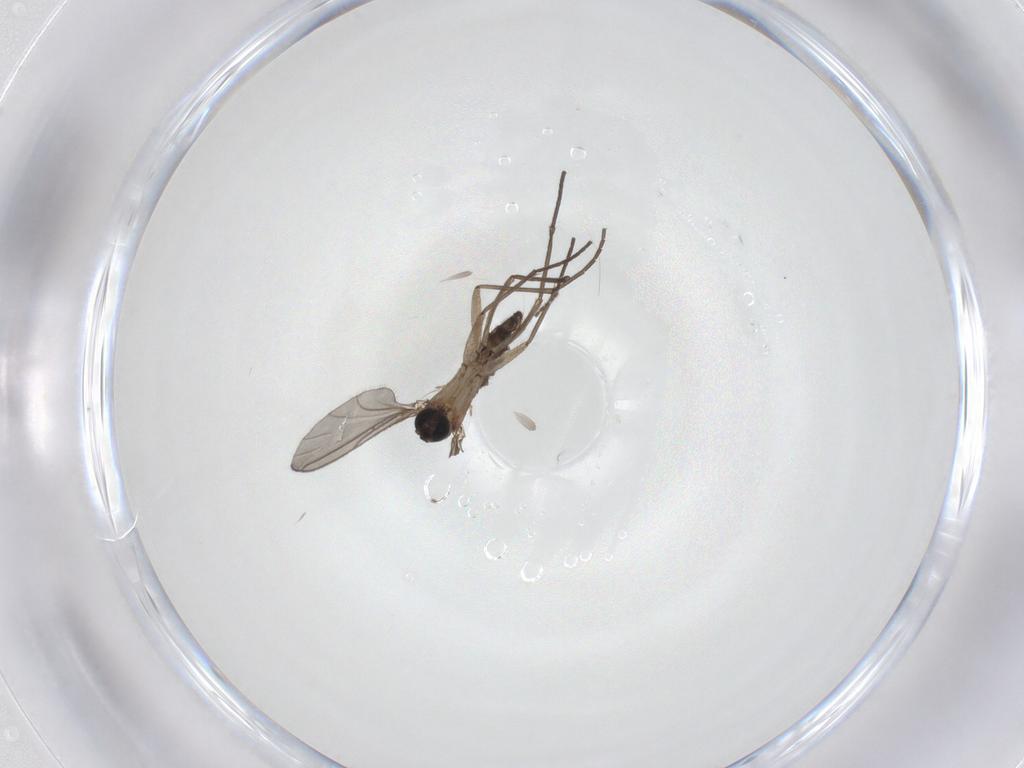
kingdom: Animalia
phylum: Arthropoda
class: Insecta
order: Diptera
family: Sciaridae
